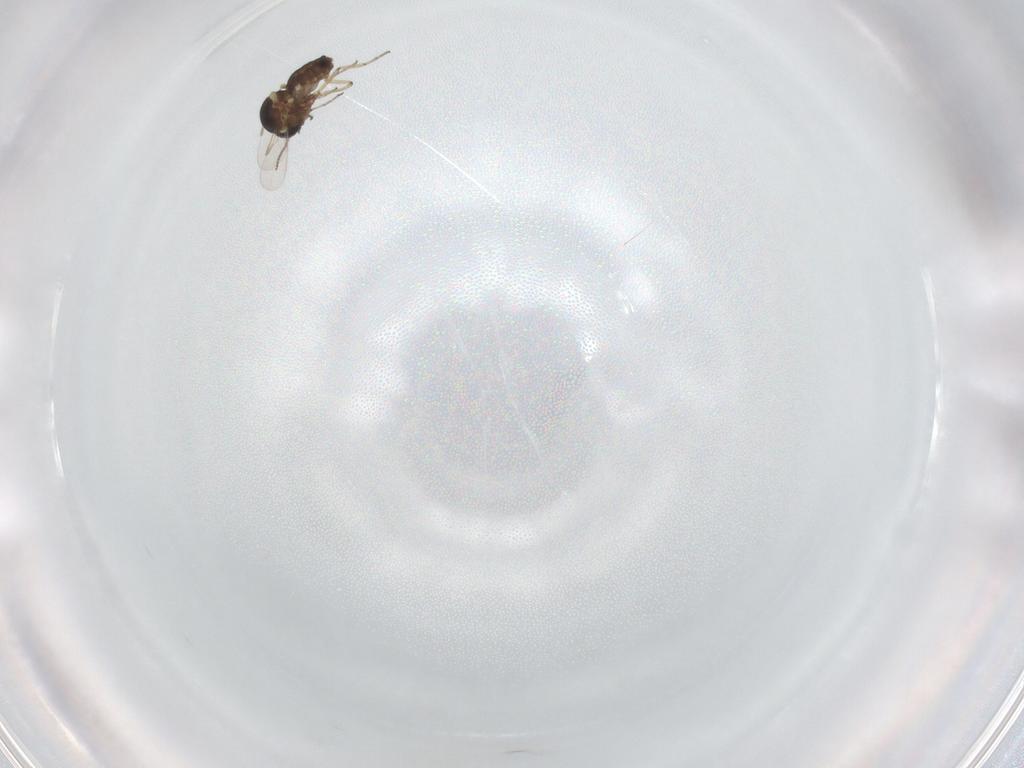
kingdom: Animalia
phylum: Arthropoda
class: Insecta
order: Diptera
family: Ceratopogonidae
